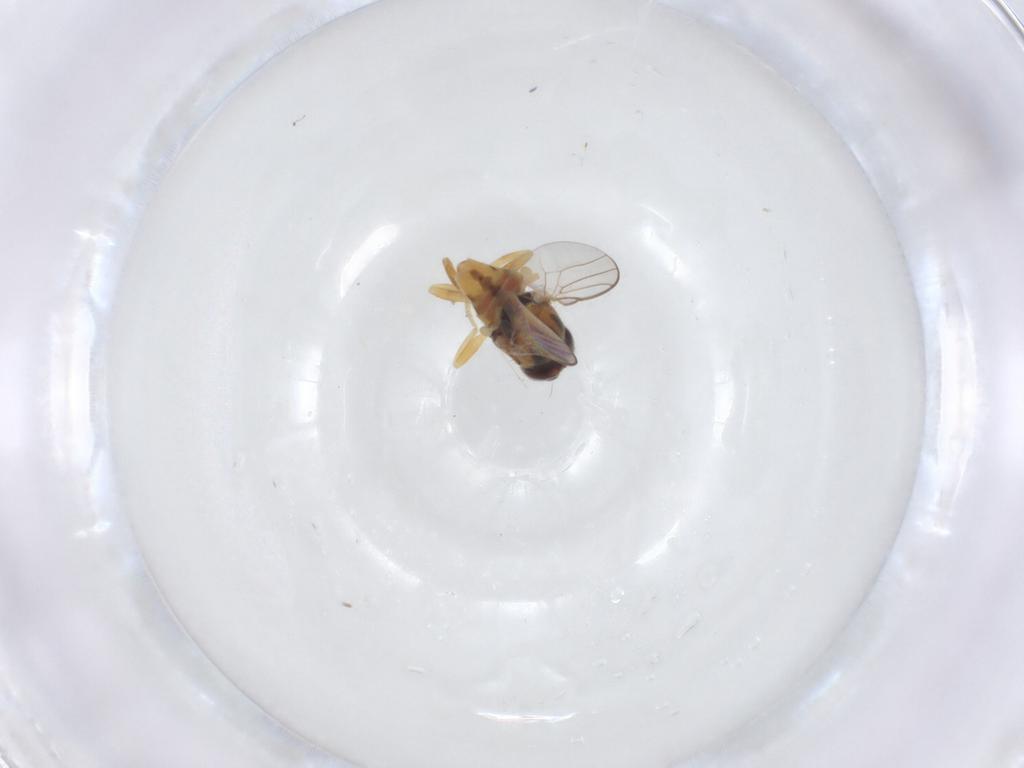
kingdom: Animalia
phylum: Arthropoda
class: Insecta
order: Diptera
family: Chloropidae
